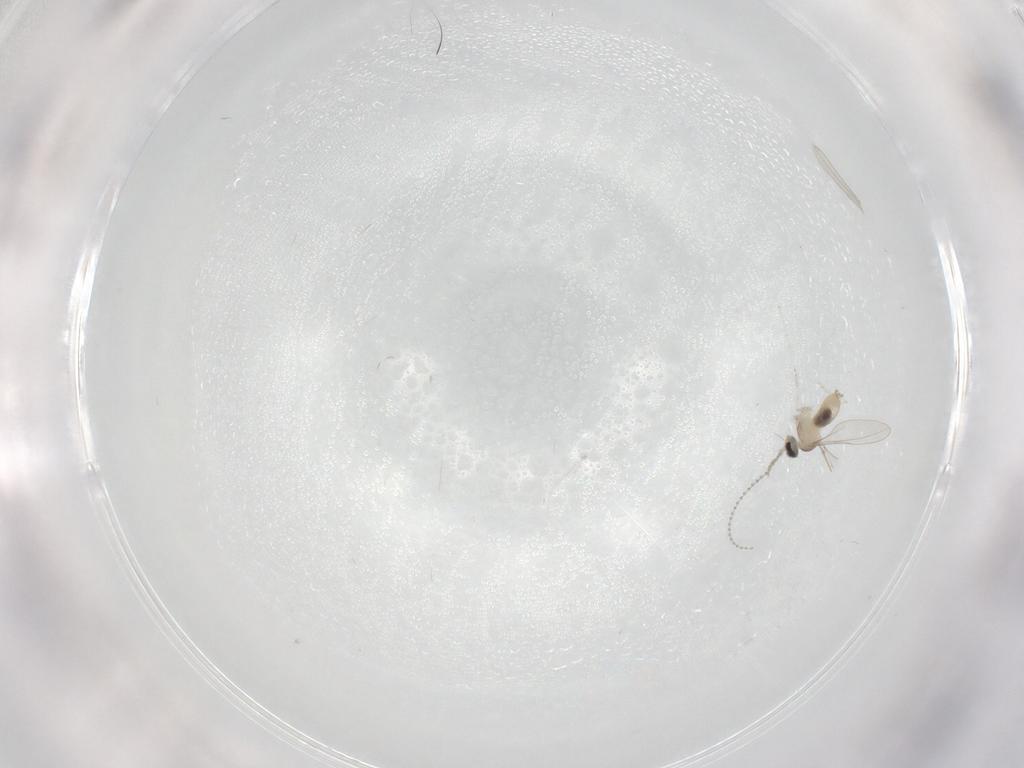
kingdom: Animalia
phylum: Arthropoda
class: Insecta
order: Diptera
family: Cecidomyiidae
